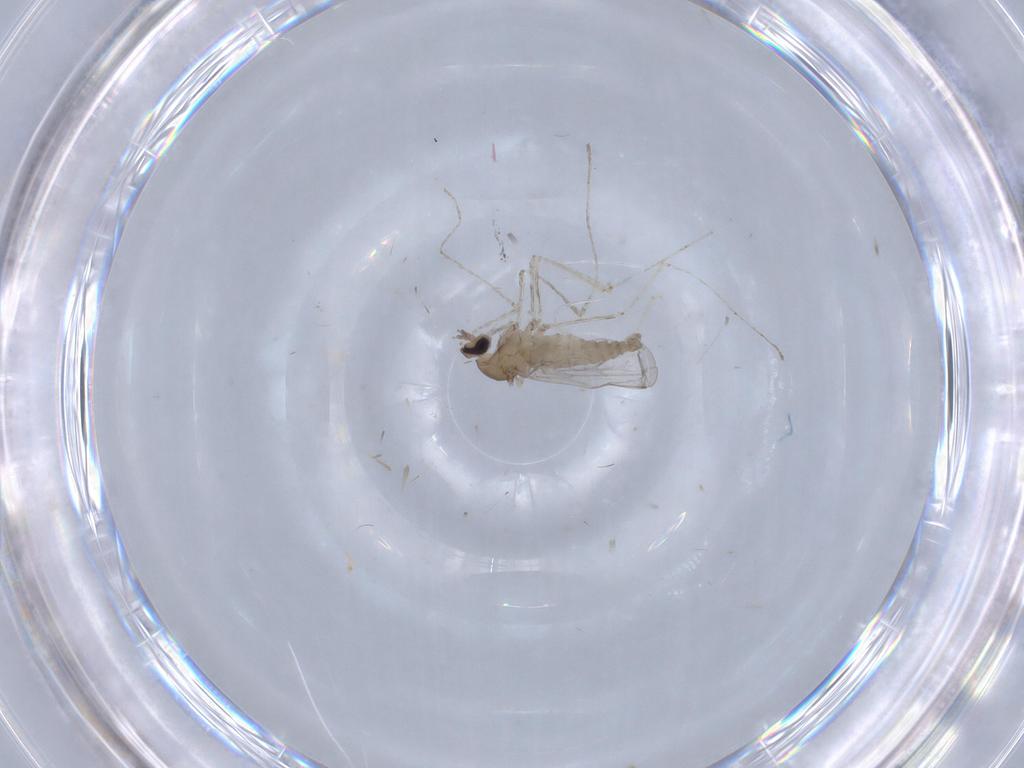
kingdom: Animalia
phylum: Arthropoda
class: Insecta
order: Diptera
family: Cecidomyiidae
